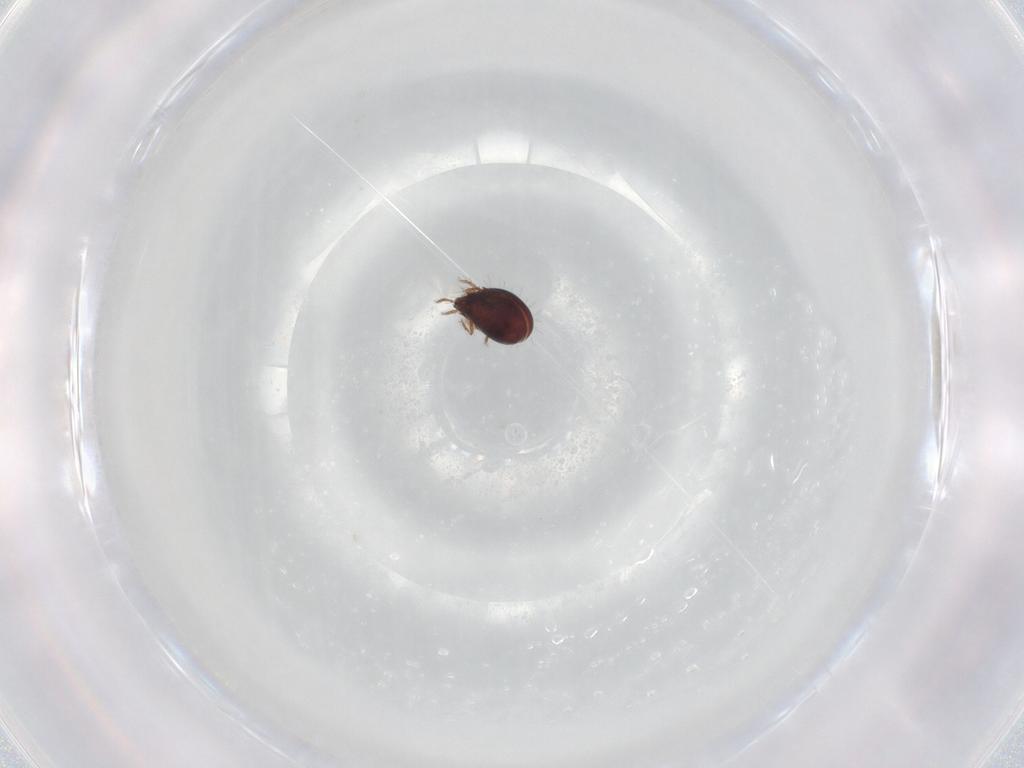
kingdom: Animalia
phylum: Arthropoda
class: Arachnida
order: Sarcoptiformes
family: Humerobatidae
